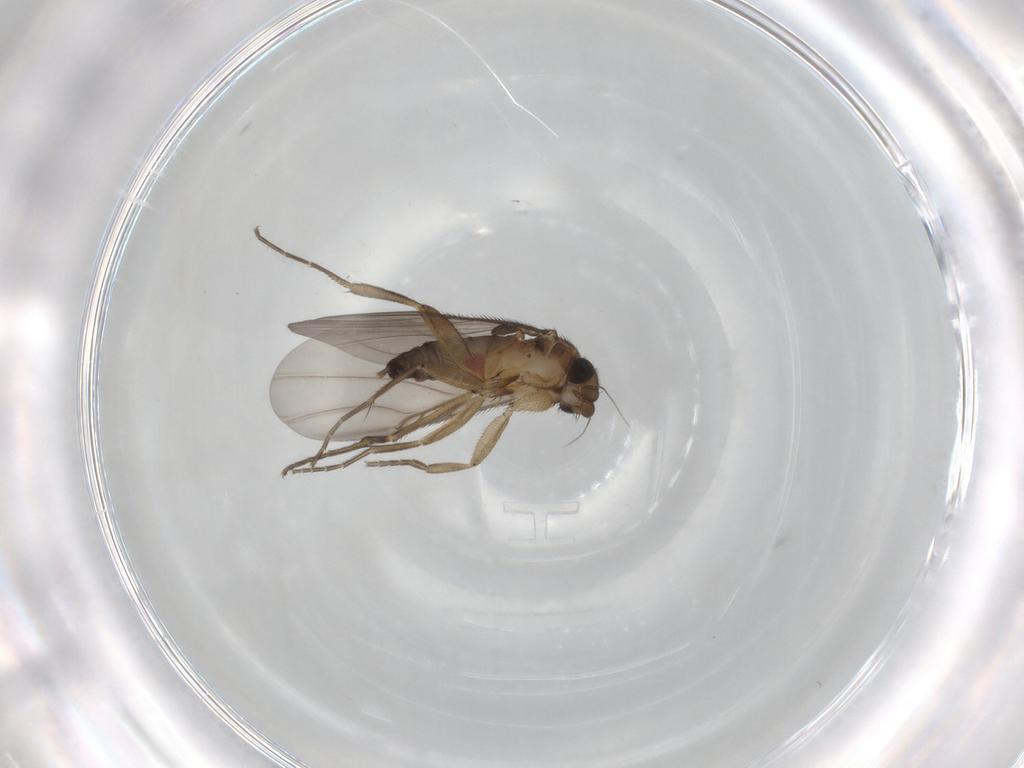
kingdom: Animalia
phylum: Arthropoda
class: Insecta
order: Diptera
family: Phoridae
